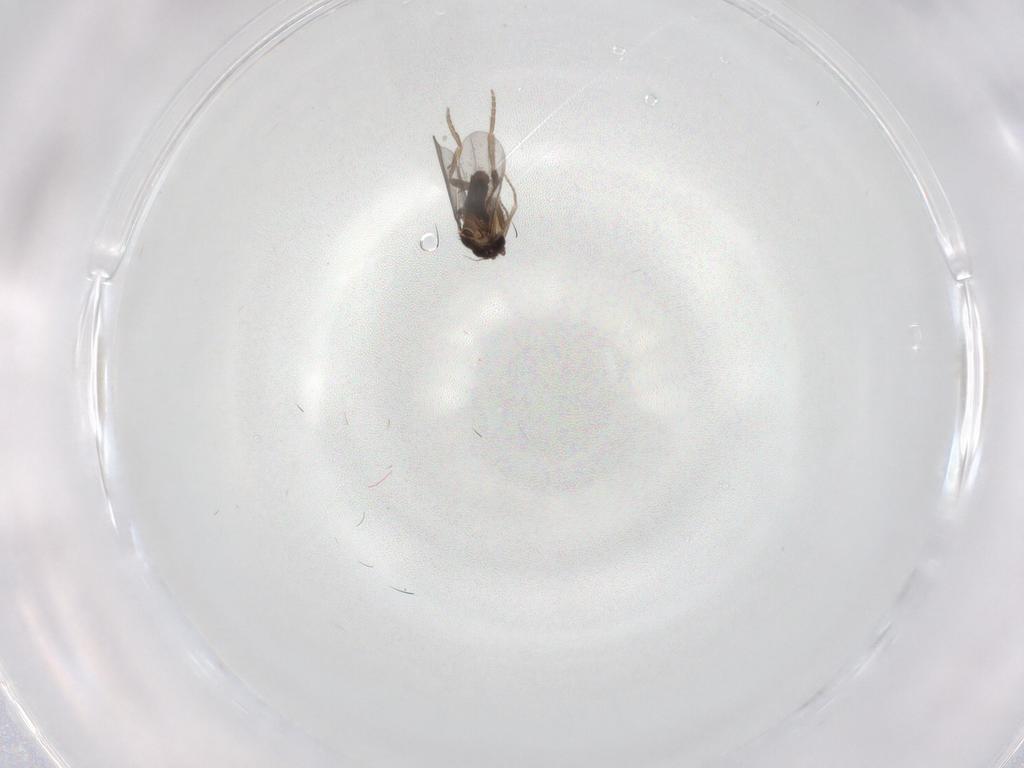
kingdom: Animalia
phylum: Arthropoda
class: Insecta
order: Diptera
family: Ceratopogonidae
